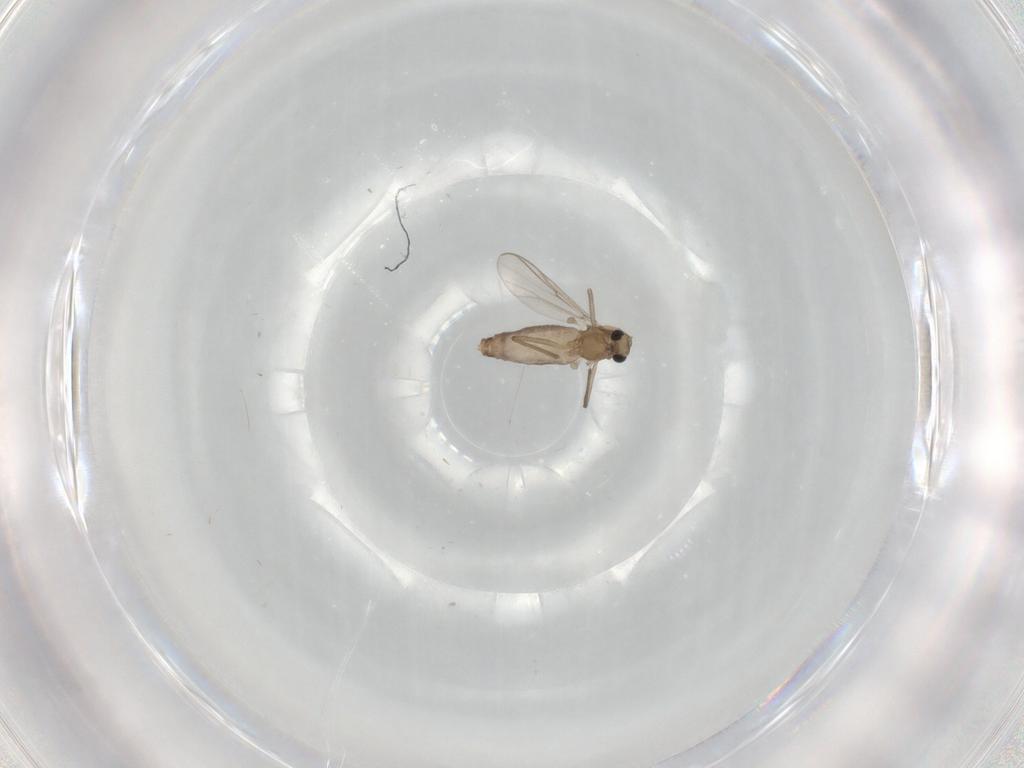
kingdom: Animalia
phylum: Arthropoda
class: Insecta
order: Diptera
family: Chironomidae
